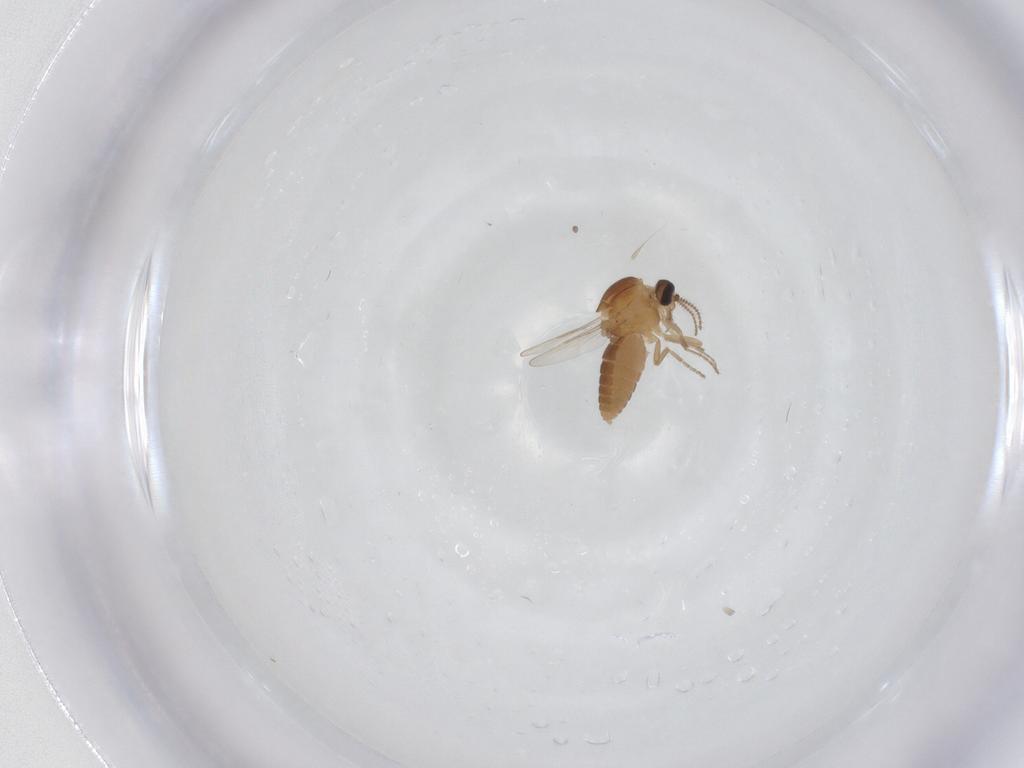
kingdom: Animalia
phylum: Arthropoda
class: Insecta
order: Diptera
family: Ceratopogonidae
